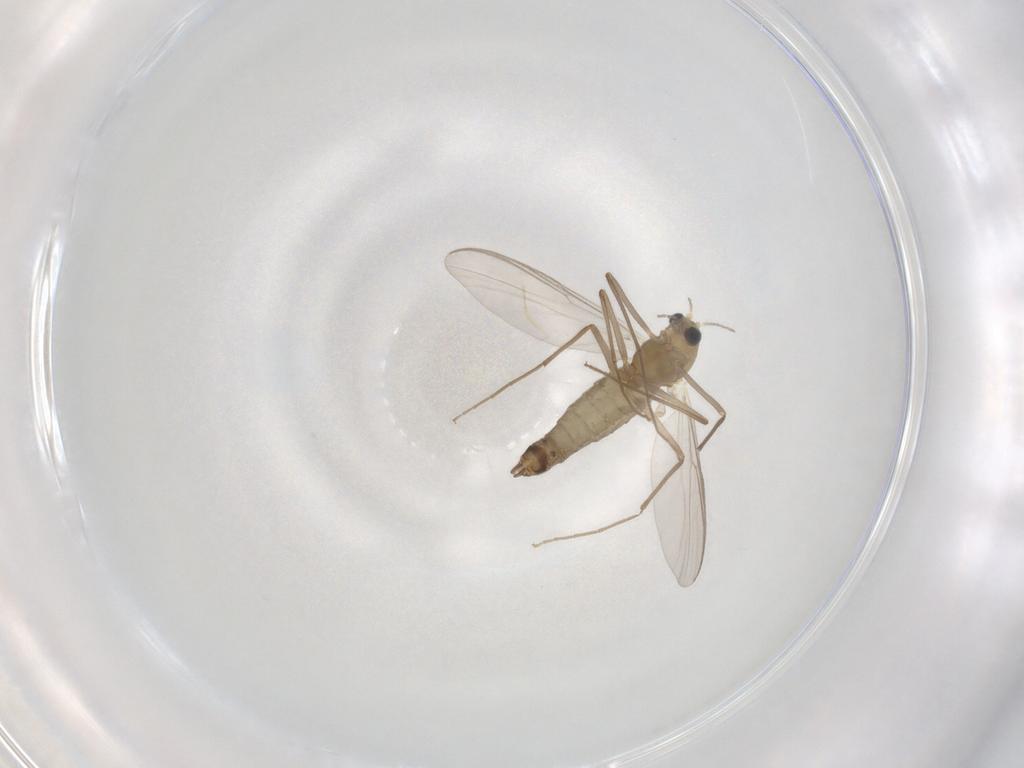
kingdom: Animalia
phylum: Arthropoda
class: Insecta
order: Diptera
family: Chironomidae
